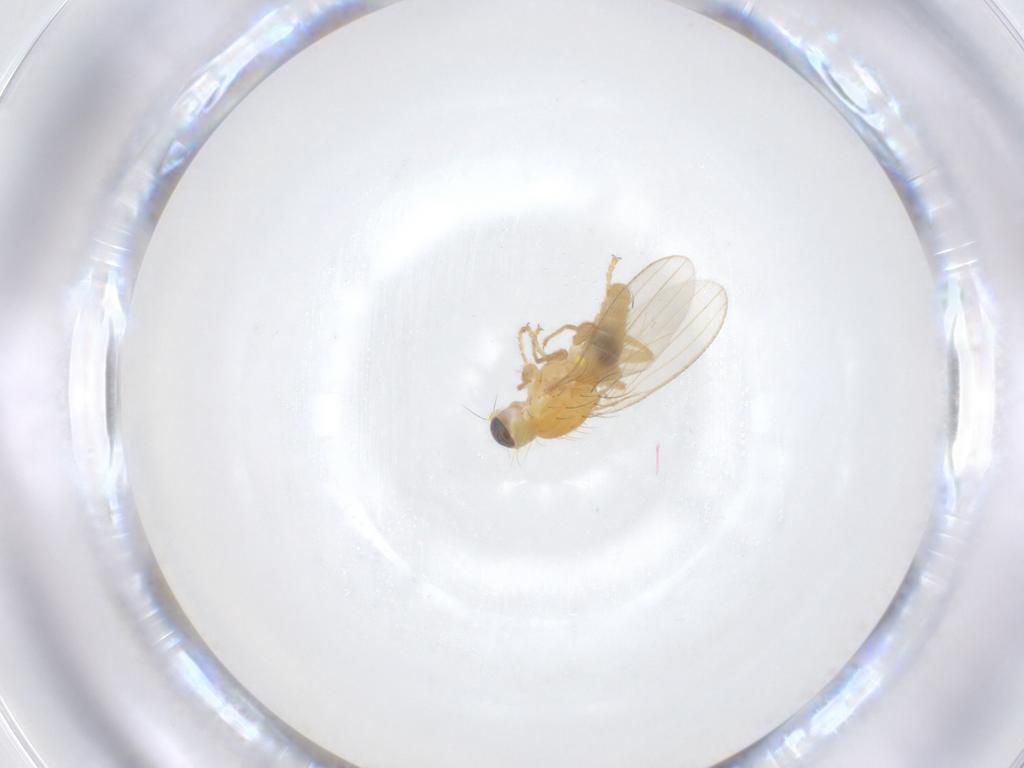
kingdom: Animalia
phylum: Arthropoda
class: Insecta
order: Diptera
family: Chyromyidae
